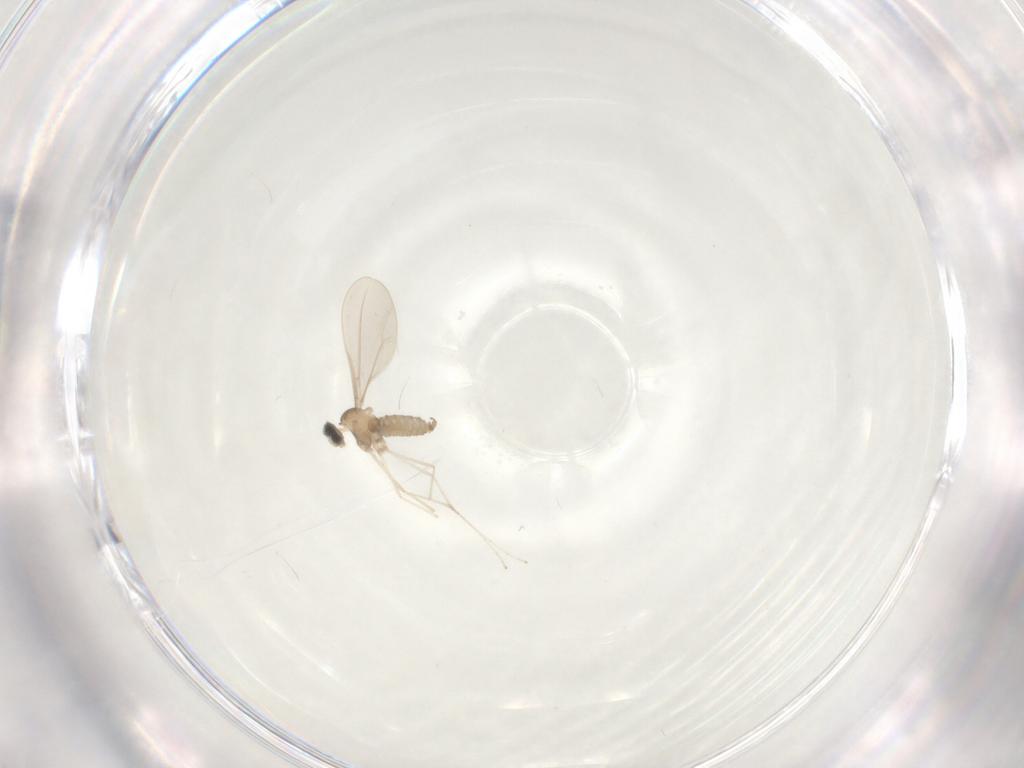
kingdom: Animalia
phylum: Arthropoda
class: Insecta
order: Diptera
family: Cecidomyiidae
